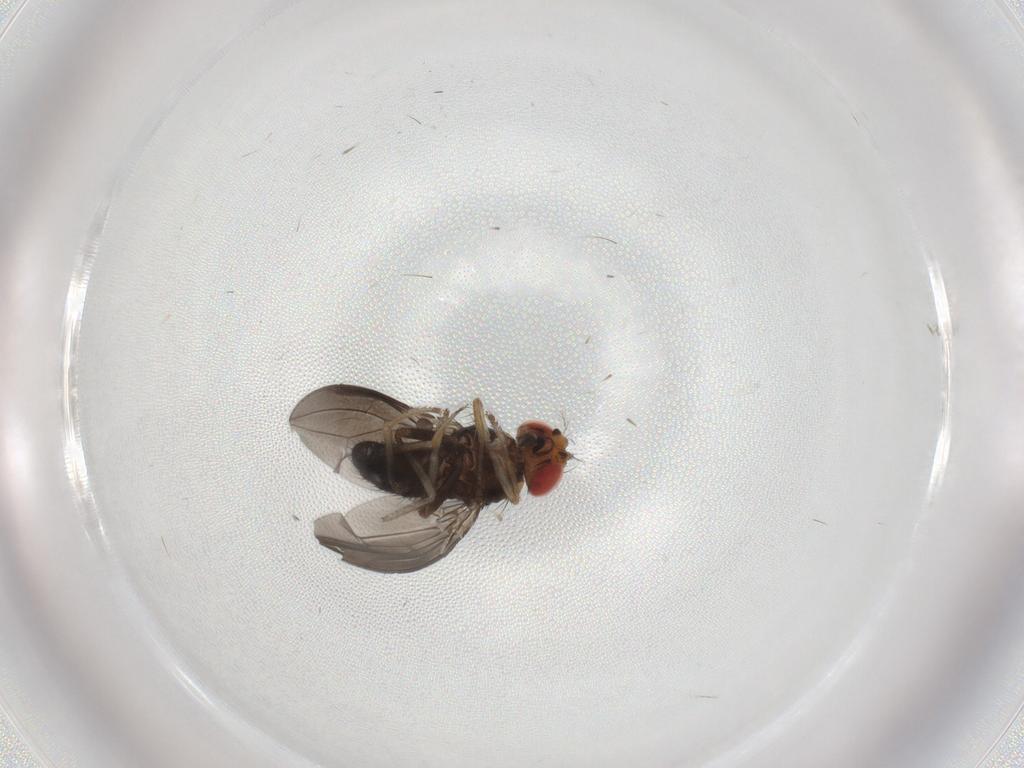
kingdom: Animalia
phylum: Arthropoda
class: Insecta
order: Diptera
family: Drosophilidae
